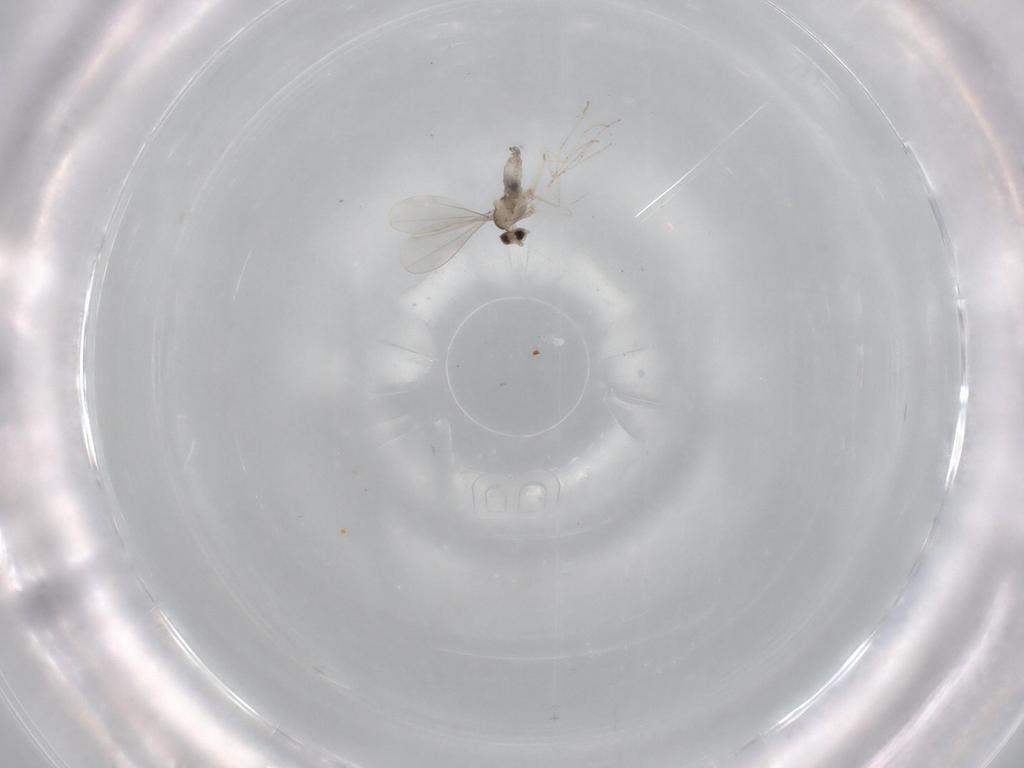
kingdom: Animalia
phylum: Arthropoda
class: Insecta
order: Diptera
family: Cecidomyiidae
